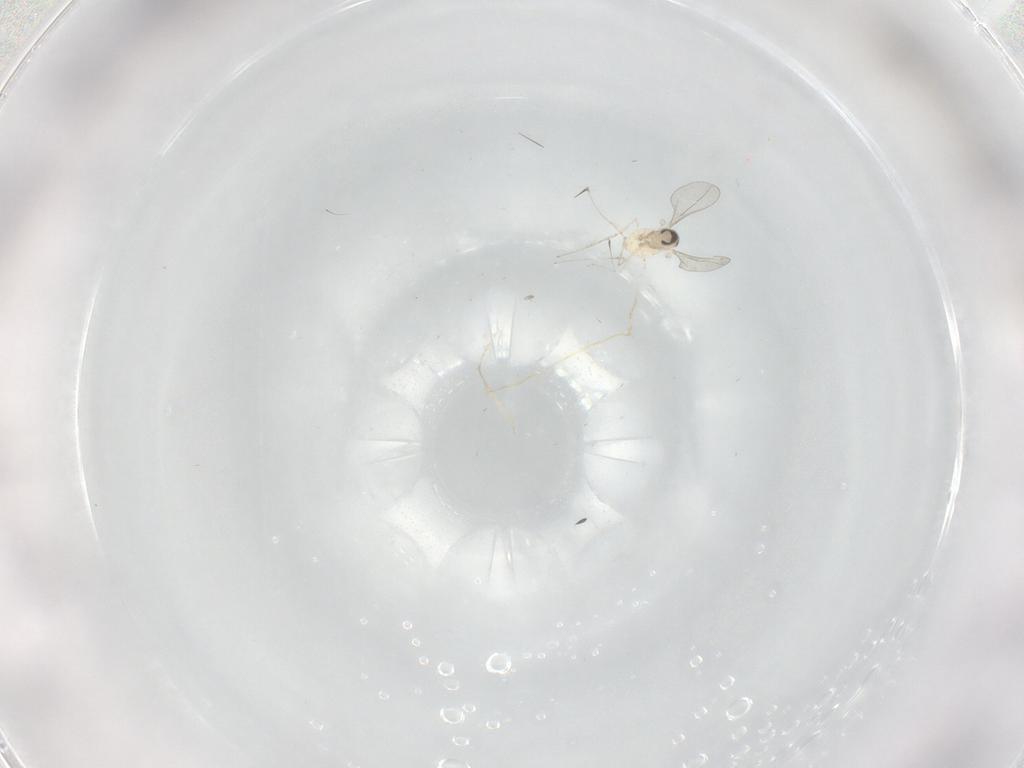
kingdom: Animalia
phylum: Arthropoda
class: Insecta
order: Diptera
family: Cecidomyiidae
